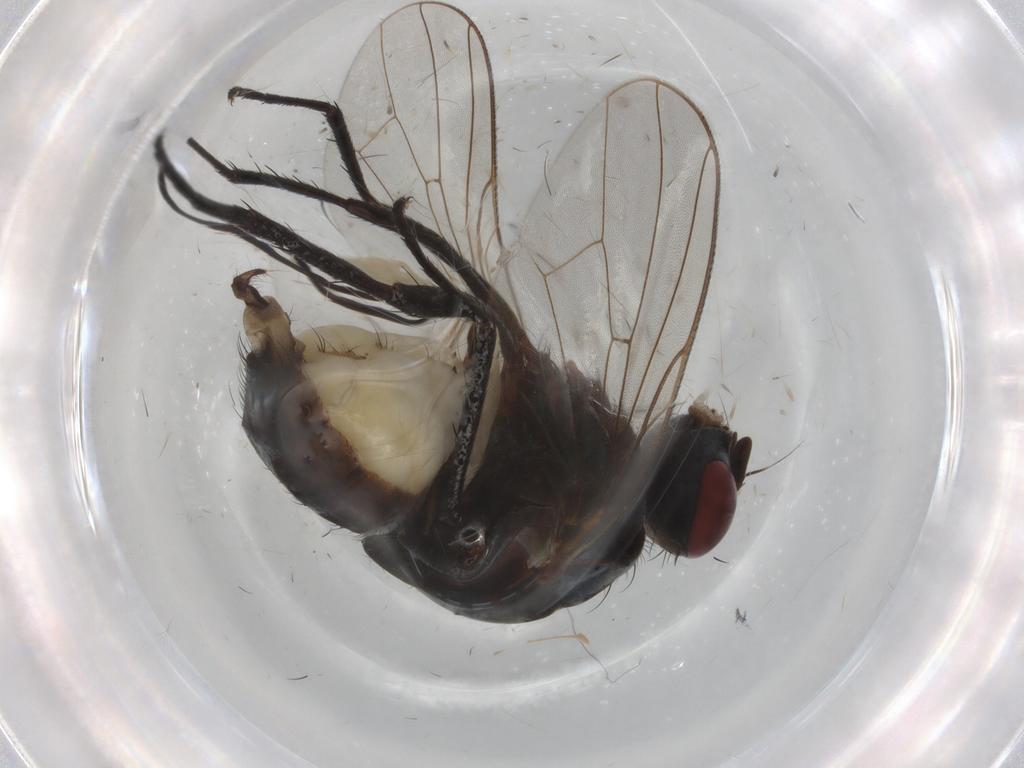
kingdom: Animalia
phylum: Arthropoda
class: Insecta
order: Diptera
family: Anthomyiidae
